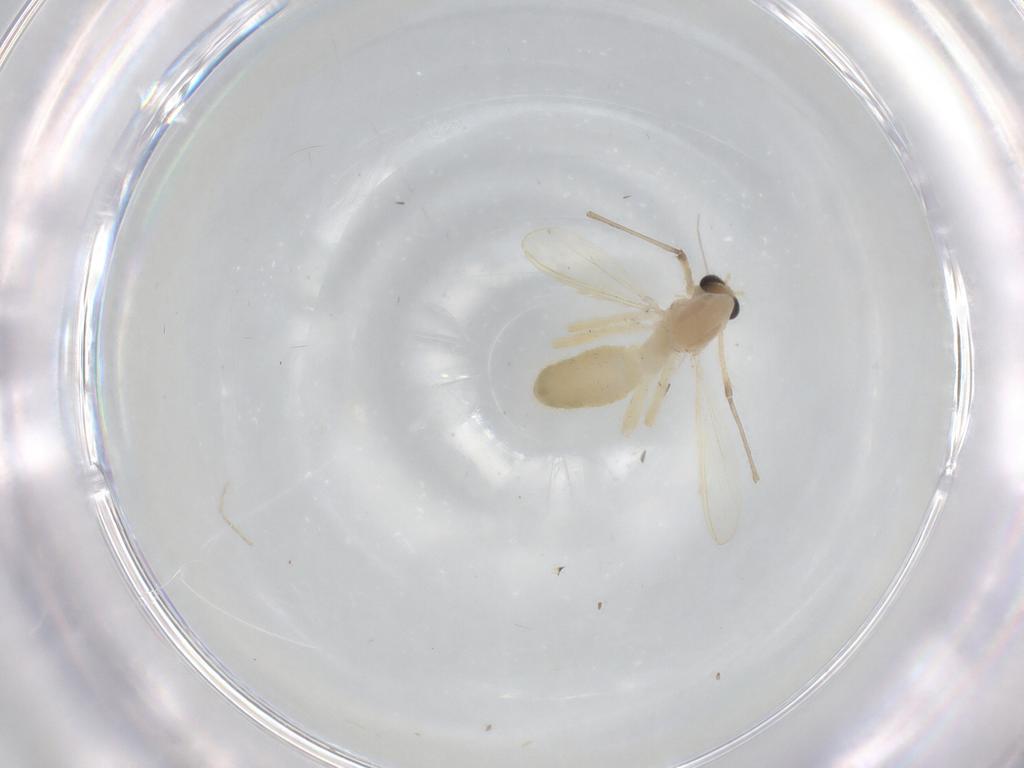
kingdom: Animalia
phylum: Arthropoda
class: Insecta
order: Diptera
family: Chironomidae
